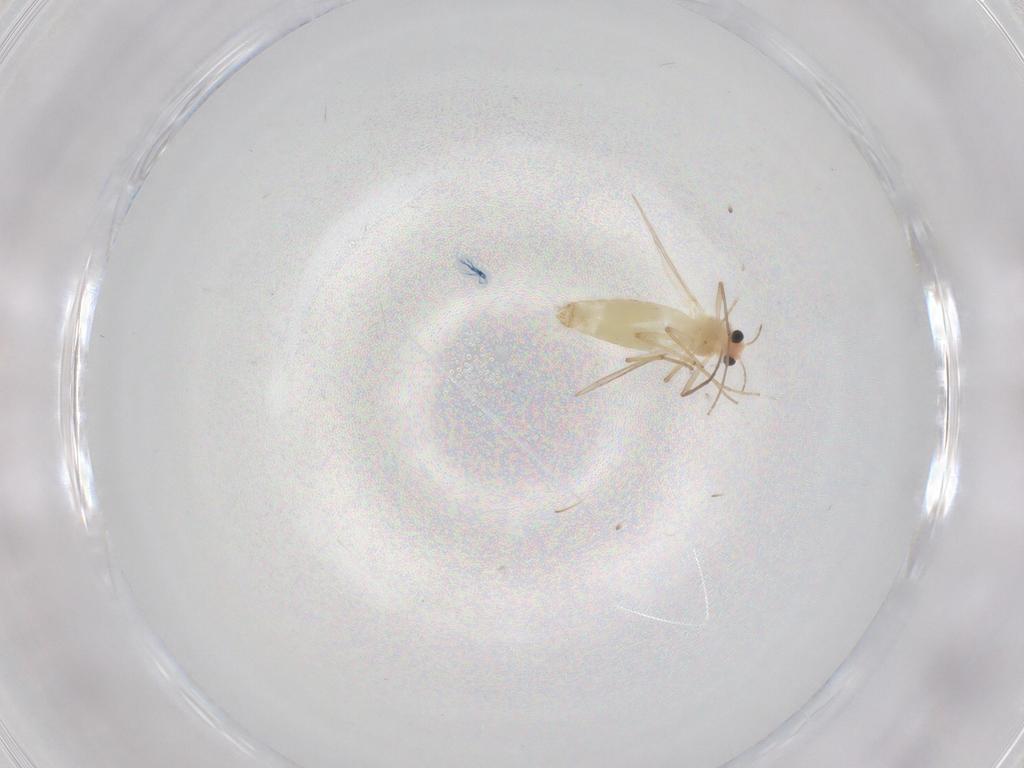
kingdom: Animalia
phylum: Arthropoda
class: Insecta
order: Diptera
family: Chironomidae
